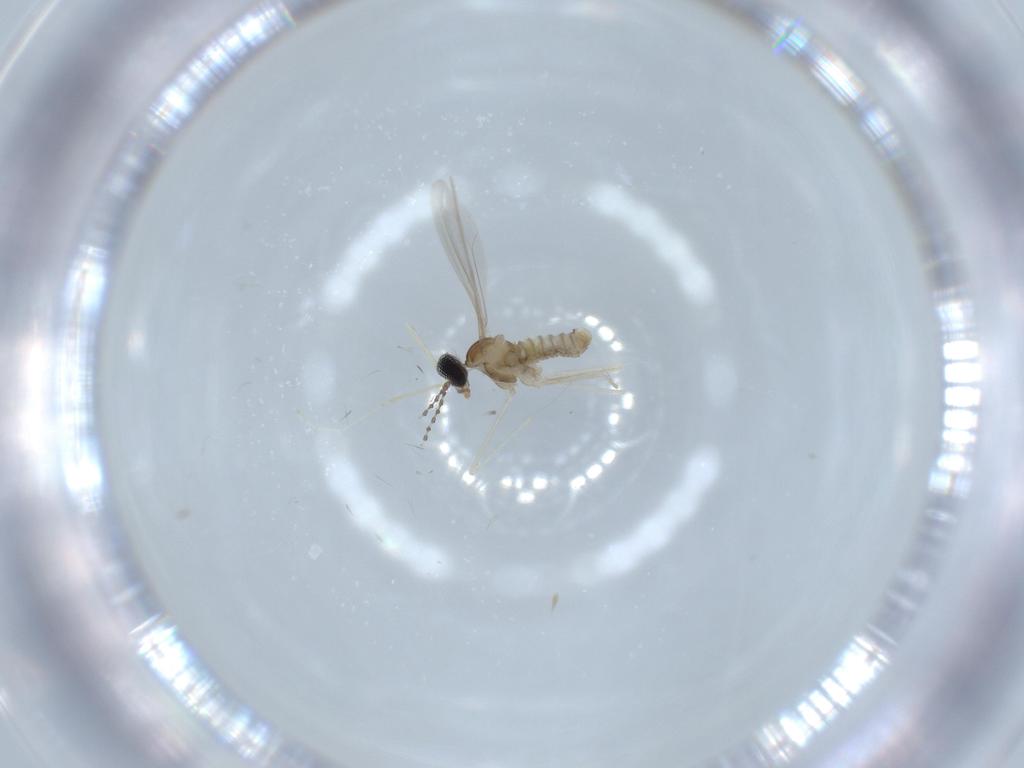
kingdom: Animalia
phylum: Arthropoda
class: Insecta
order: Diptera
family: Cecidomyiidae
